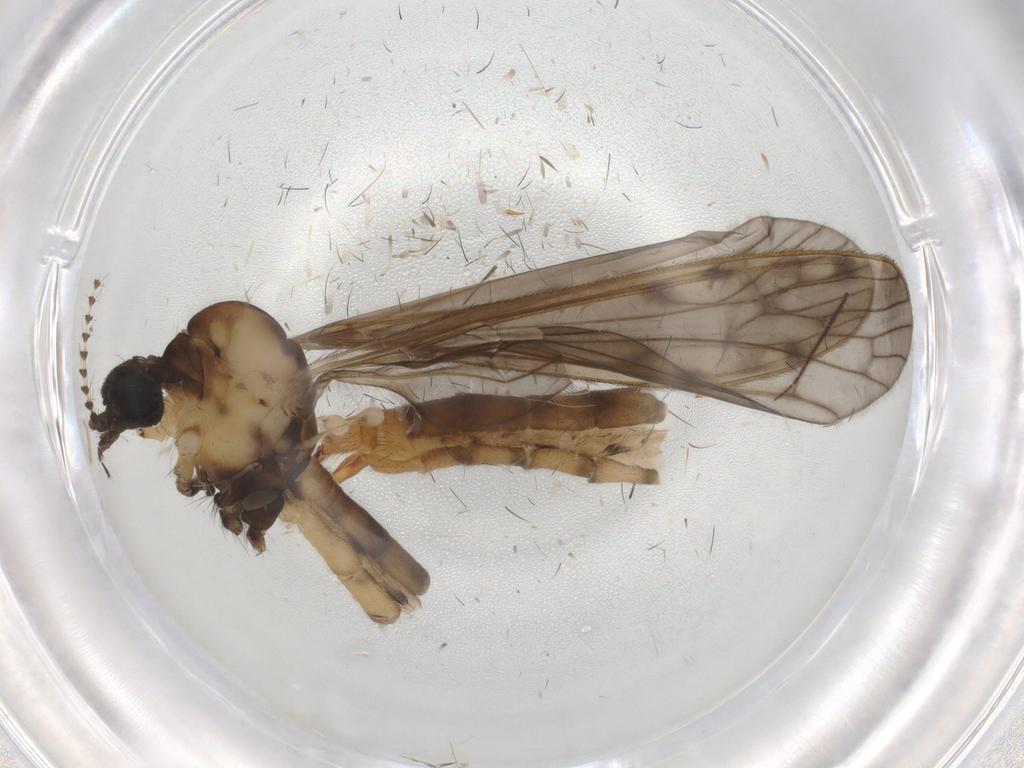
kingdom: Animalia
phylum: Arthropoda
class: Insecta
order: Diptera
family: Limoniidae
